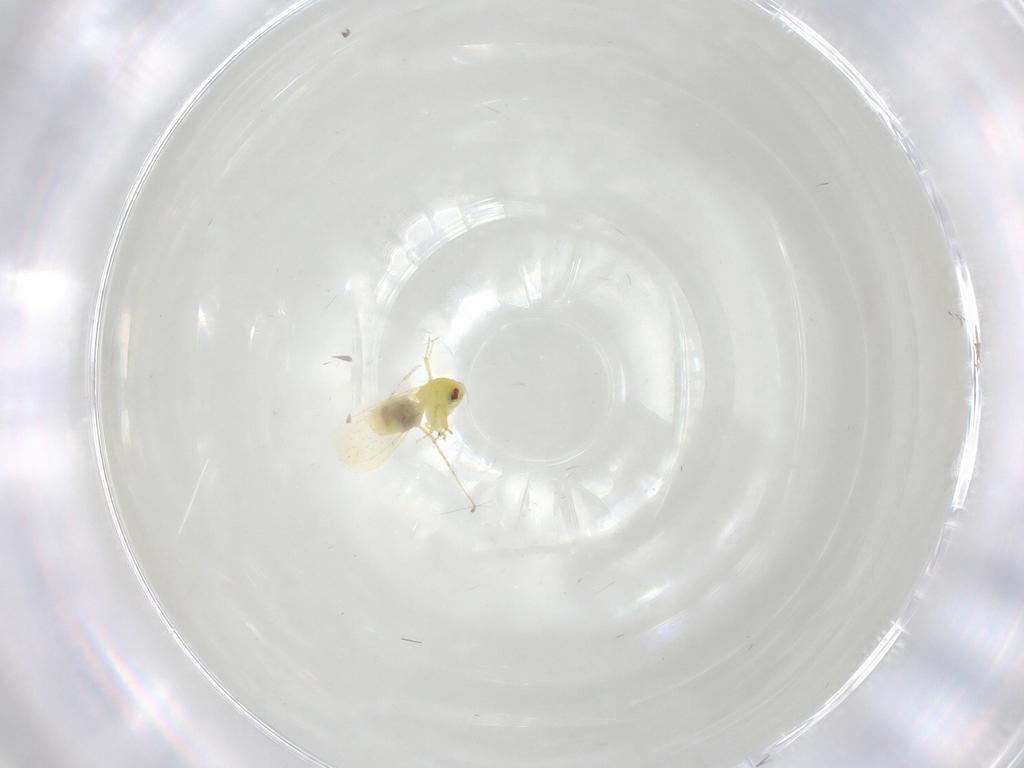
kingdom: Animalia
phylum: Arthropoda
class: Insecta
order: Hemiptera
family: Aleyrodidae
